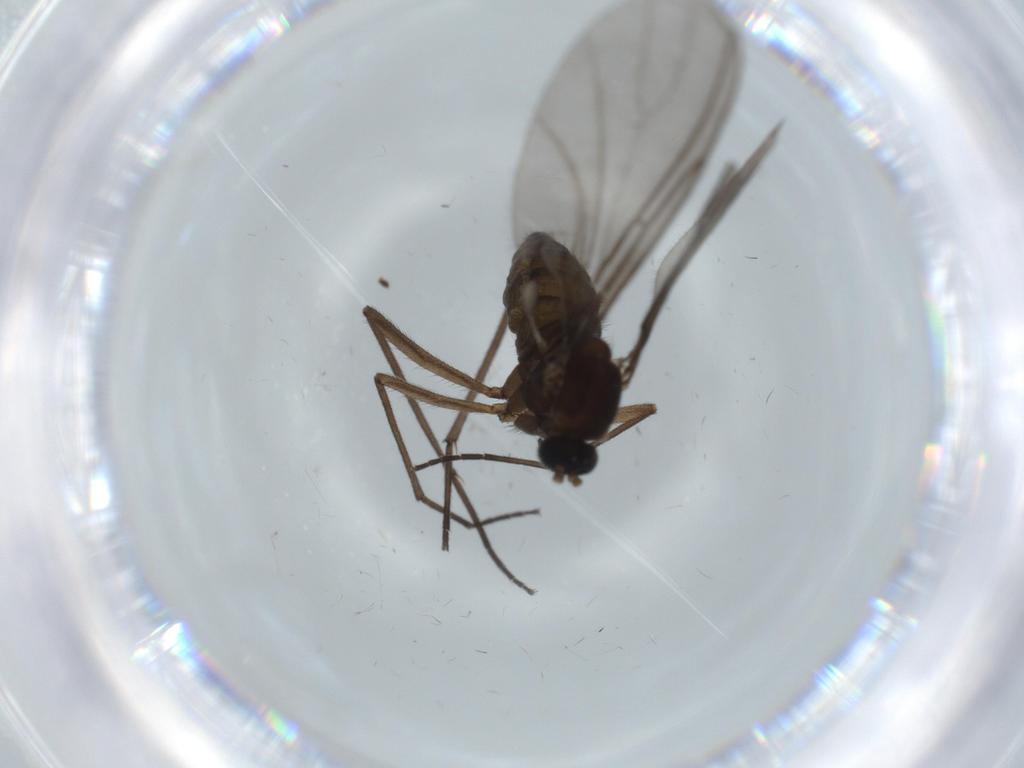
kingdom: Animalia
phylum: Arthropoda
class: Insecta
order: Diptera
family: Sciaridae
